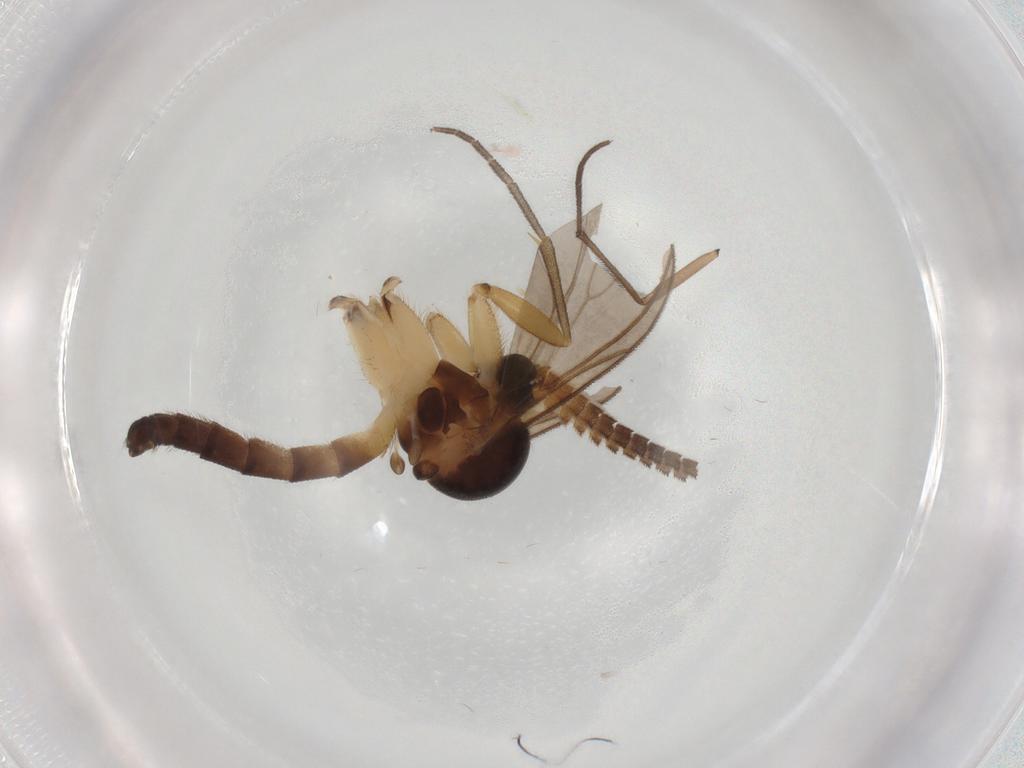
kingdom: Animalia
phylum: Arthropoda
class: Insecta
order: Diptera
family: Mycetophilidae
